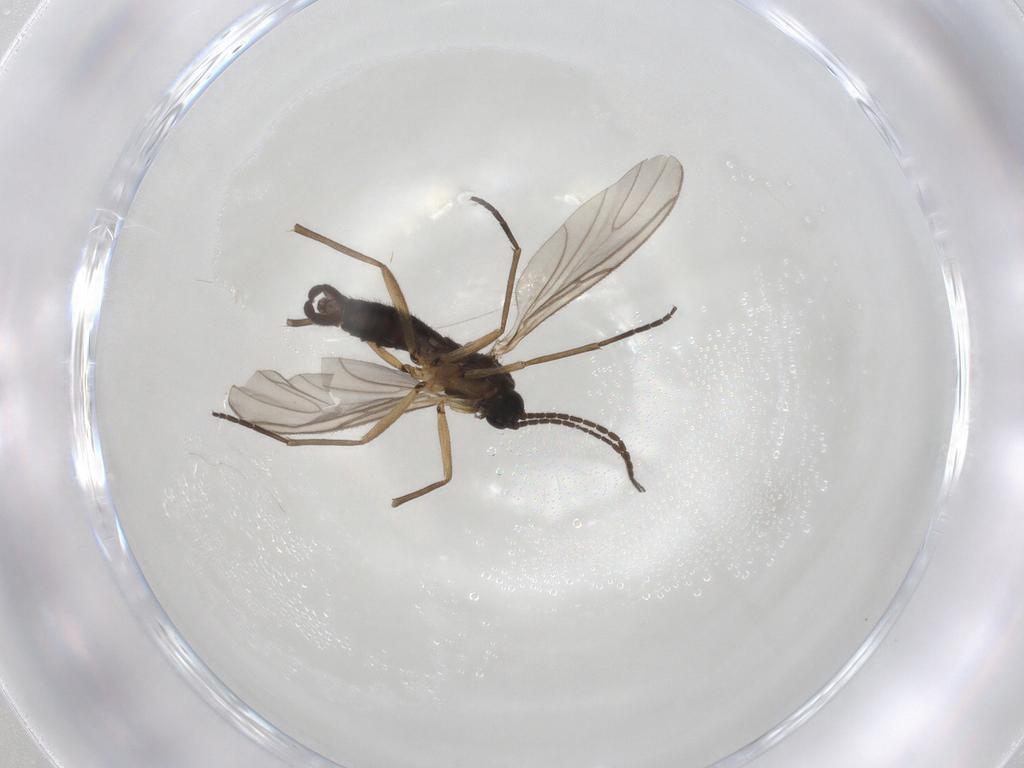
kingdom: Animalia
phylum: Arthropoda
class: Insecta
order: Diptera
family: Sciaridae
